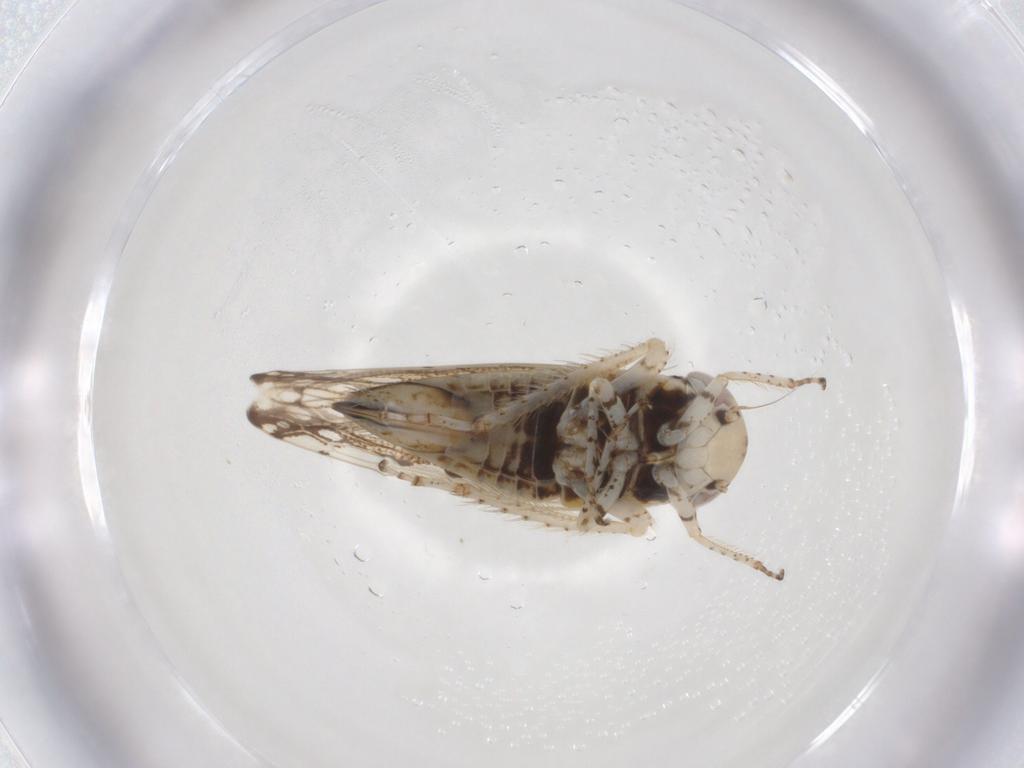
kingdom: Animalia
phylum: Arthropoda
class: Insecta
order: Hemiptera
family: Cicadellidae
